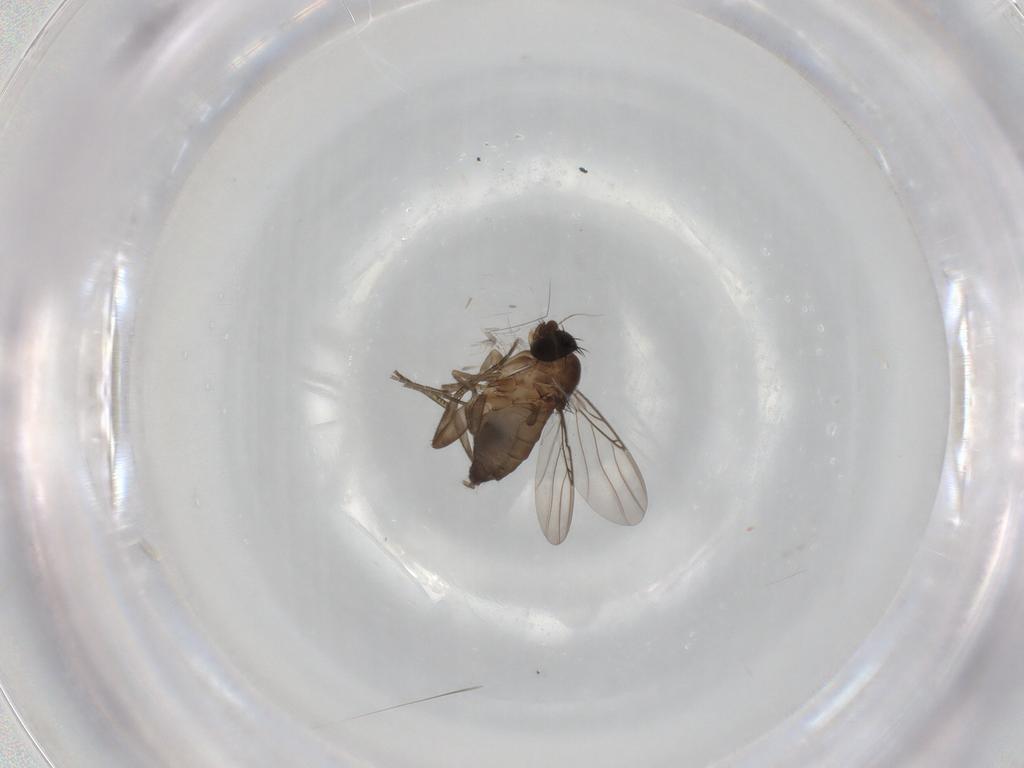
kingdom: Animalia
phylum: Arthropoda
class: Insecta
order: Diptera
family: Phoridae
